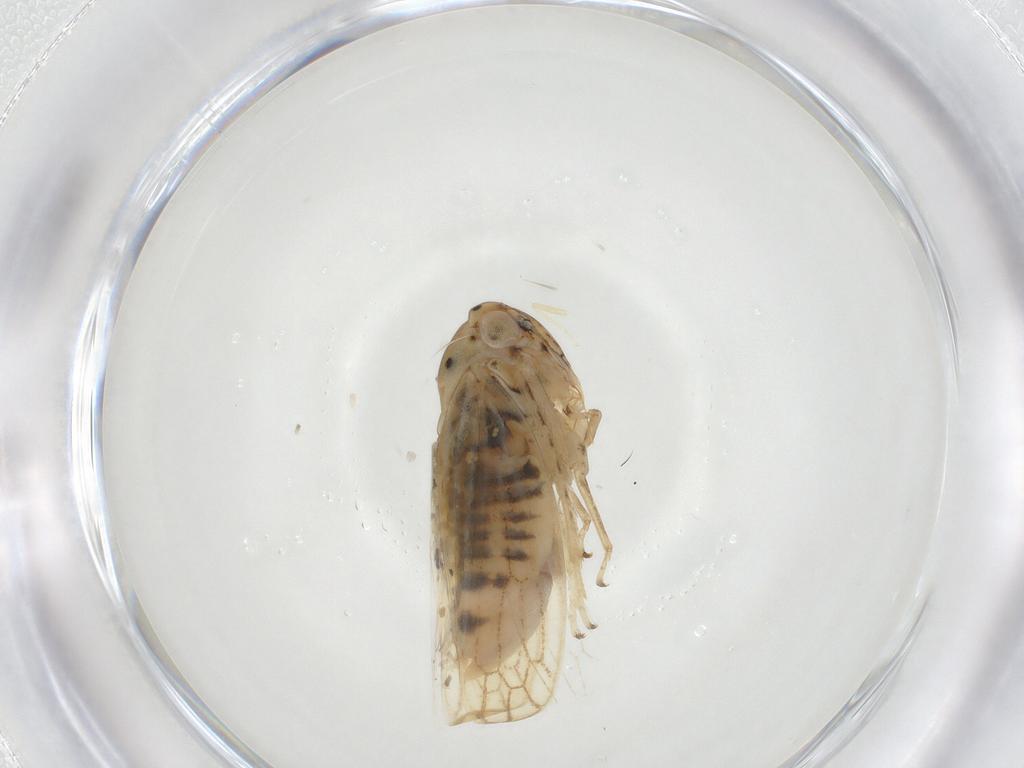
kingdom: Animalia
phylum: Arthropoda
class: Insecta
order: Hemiptera
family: Cicadellidae
